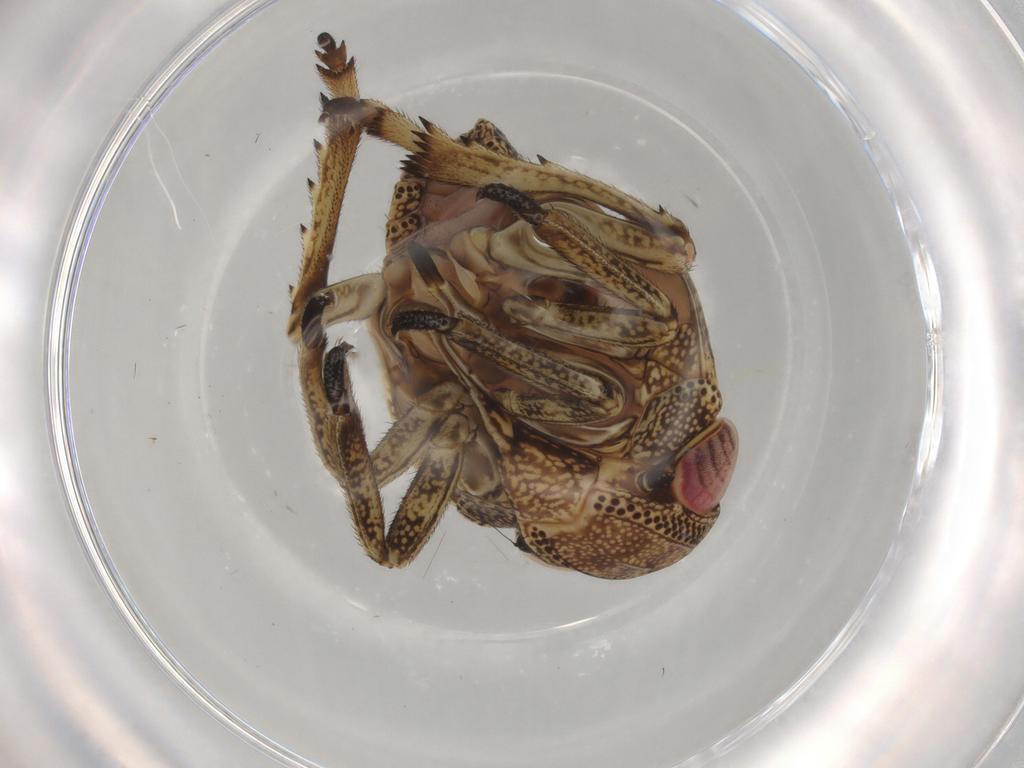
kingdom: Animalia
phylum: Arthropoda
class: Insecta
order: Hemiptera
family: Nogodinidae
